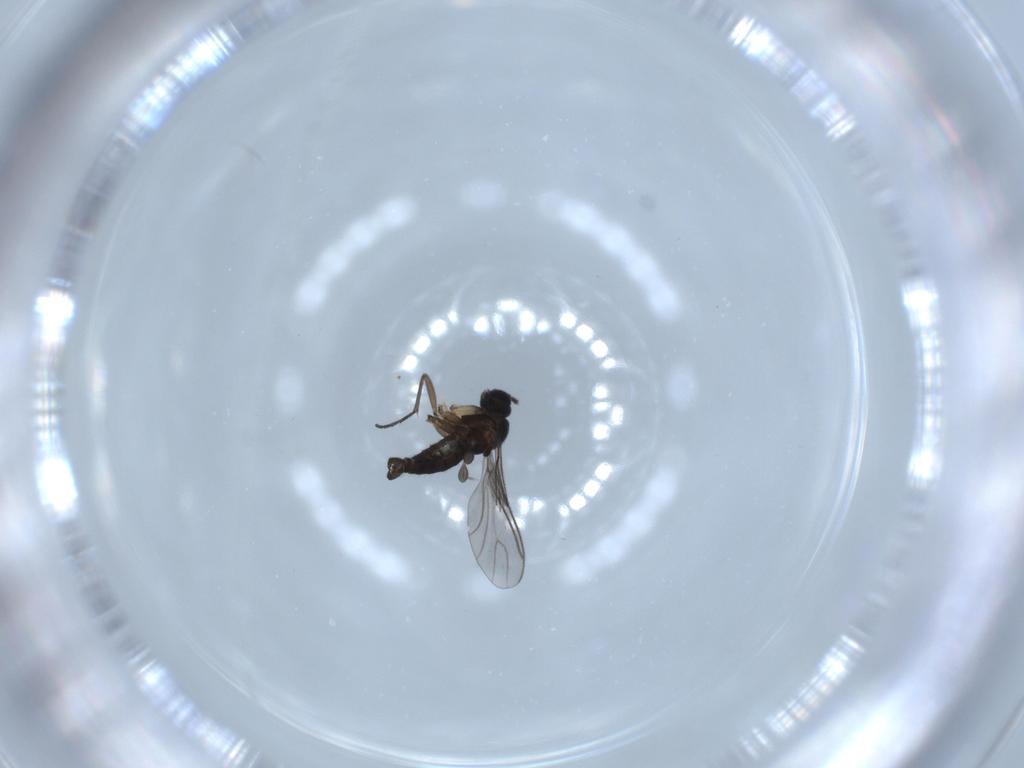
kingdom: Animalia
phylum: Arthropoda
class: Insecta
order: Diptera
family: Sciaridae
